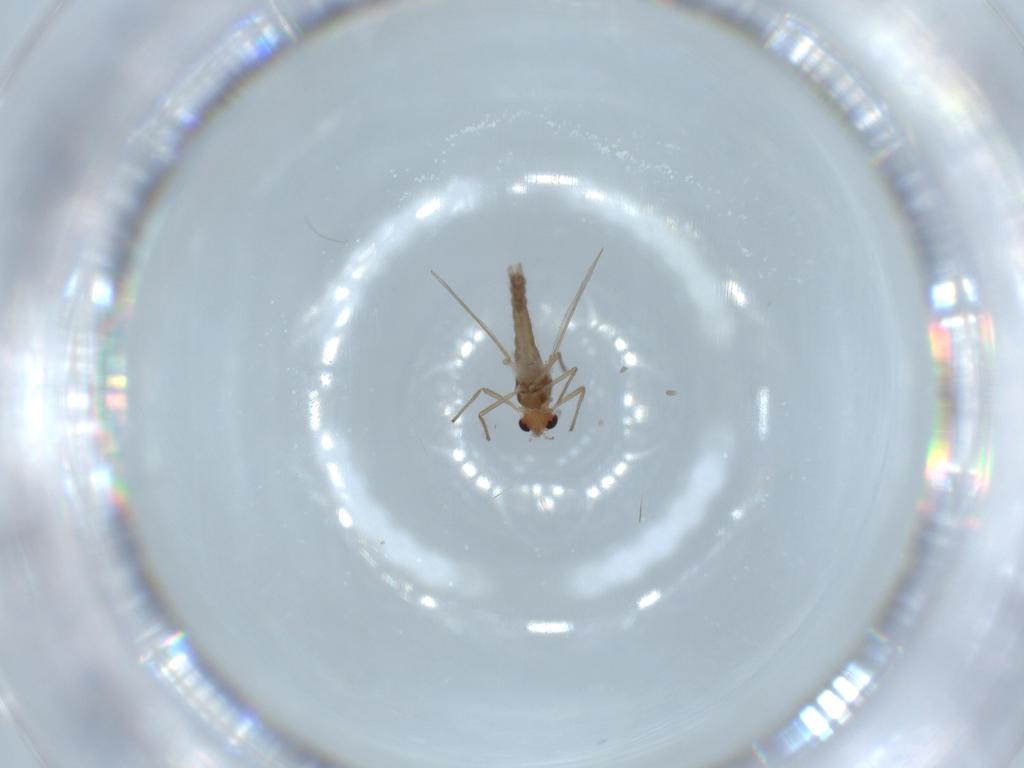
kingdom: Animalia
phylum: Arthropoda
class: Insecta
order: Diptera
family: Chironomidae
